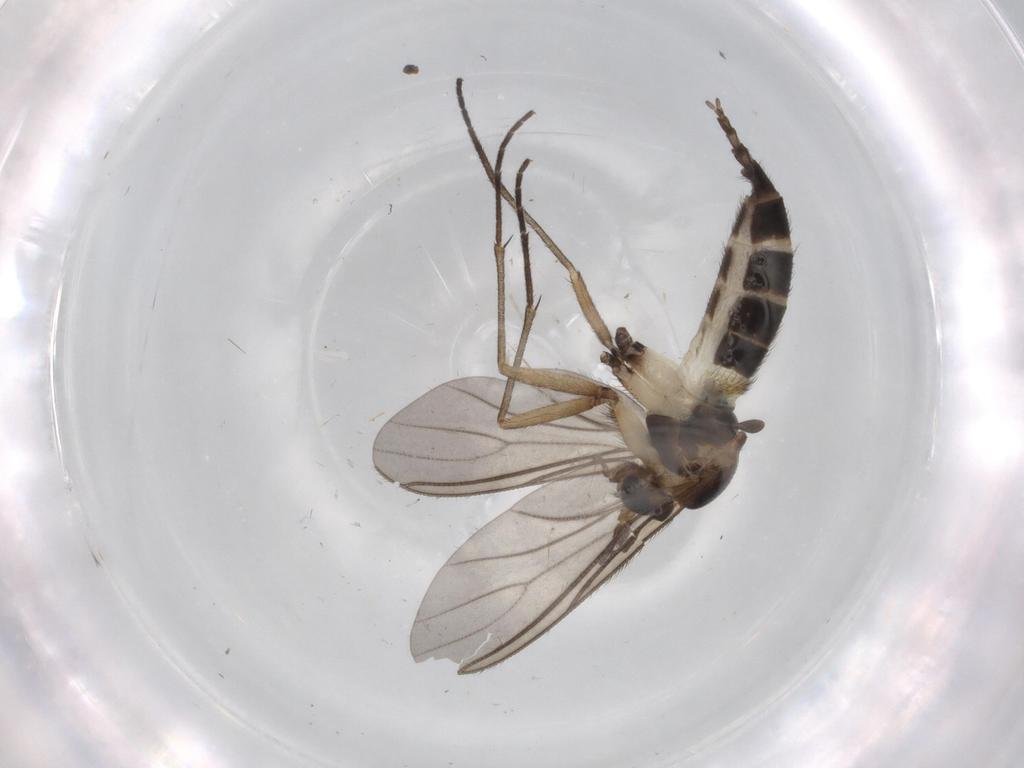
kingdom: Animalia
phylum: Arthropoda
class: Insecta
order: Diptera
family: Sciaridae
